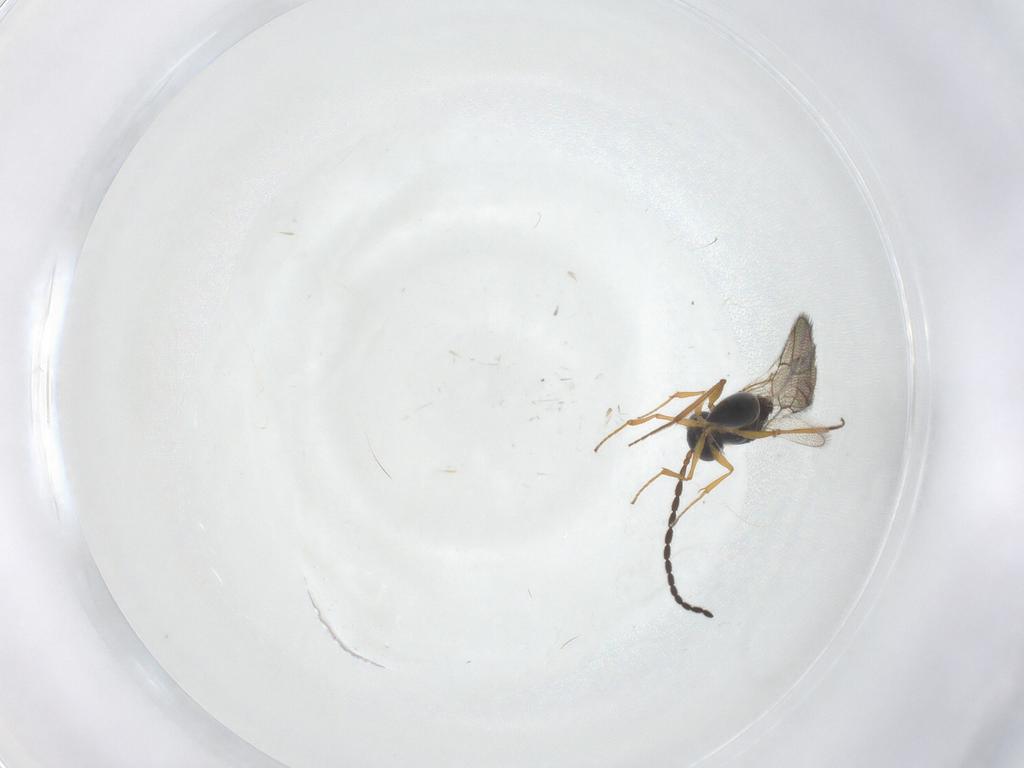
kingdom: Animalia
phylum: Arthropoda
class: Insecta
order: Hymenoptera
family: Figitidae
